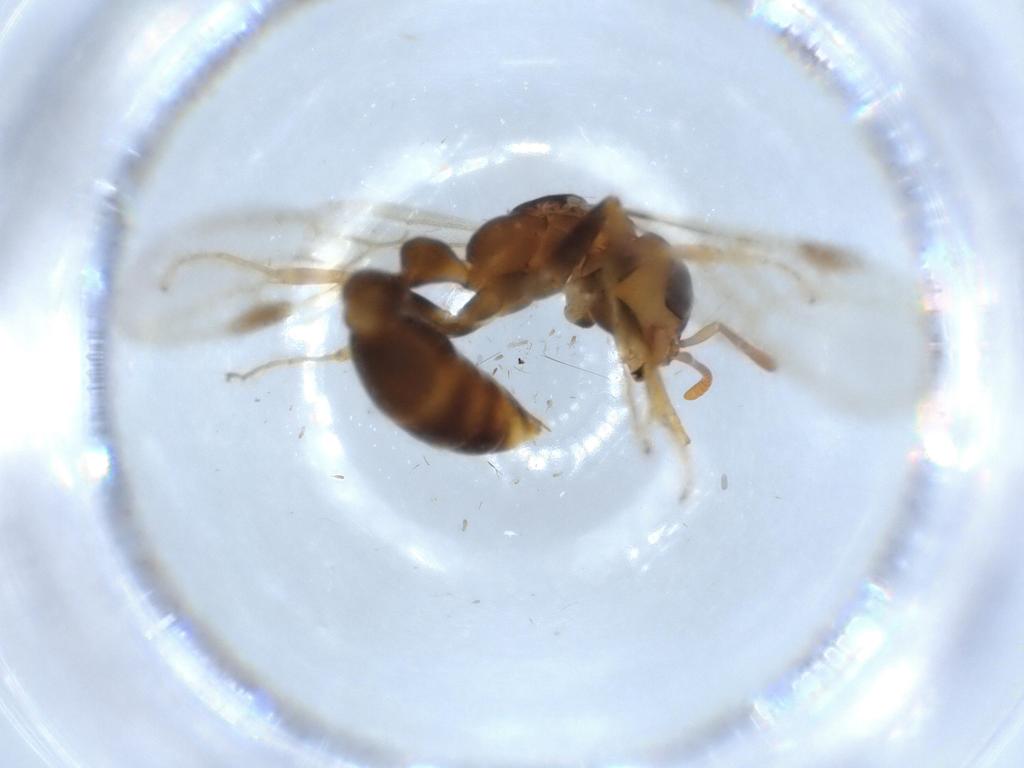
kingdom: Animalia
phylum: Arthropoda
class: Insecta
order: Hymenoptera
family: Formicidae
